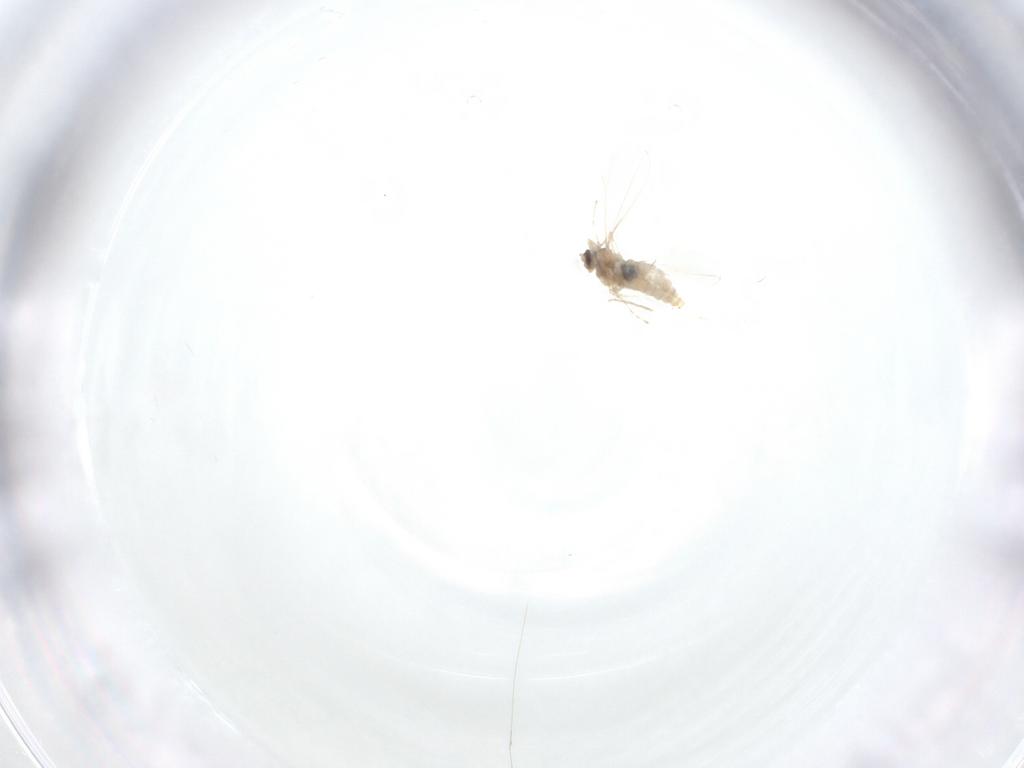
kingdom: Animalia
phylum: Arthropoda
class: Insecta
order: Diptera
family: Cecidomyiidae
